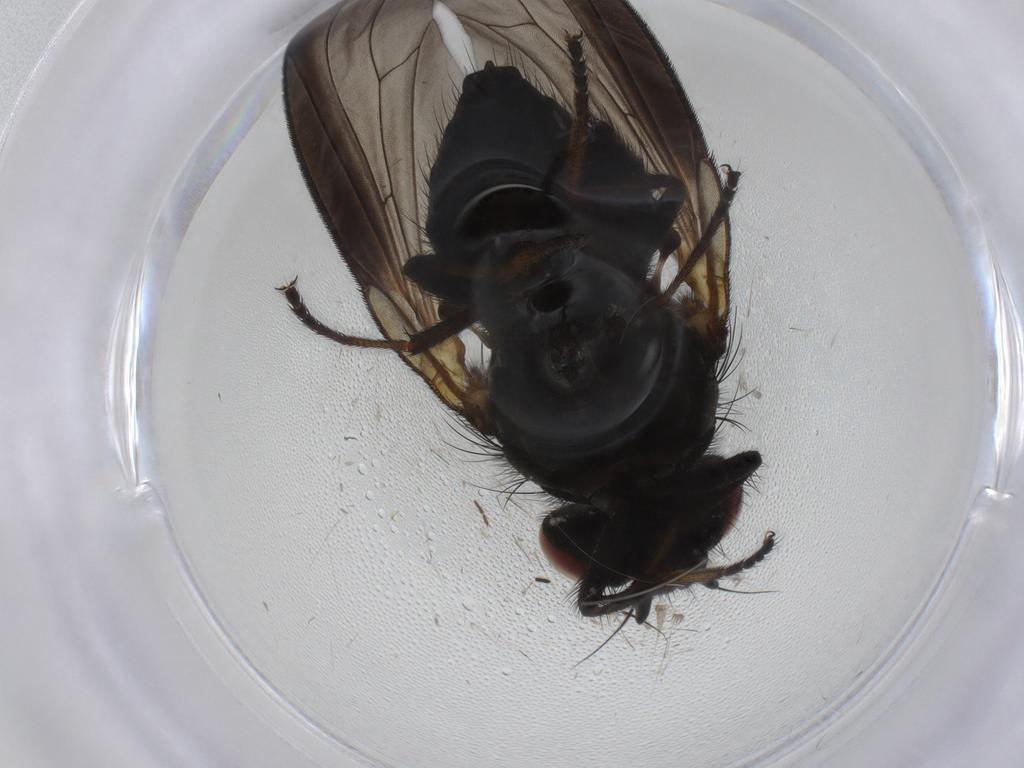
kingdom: Animalia
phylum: Arthropoda
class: Insecta
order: Diptera
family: Lonchaeidae
